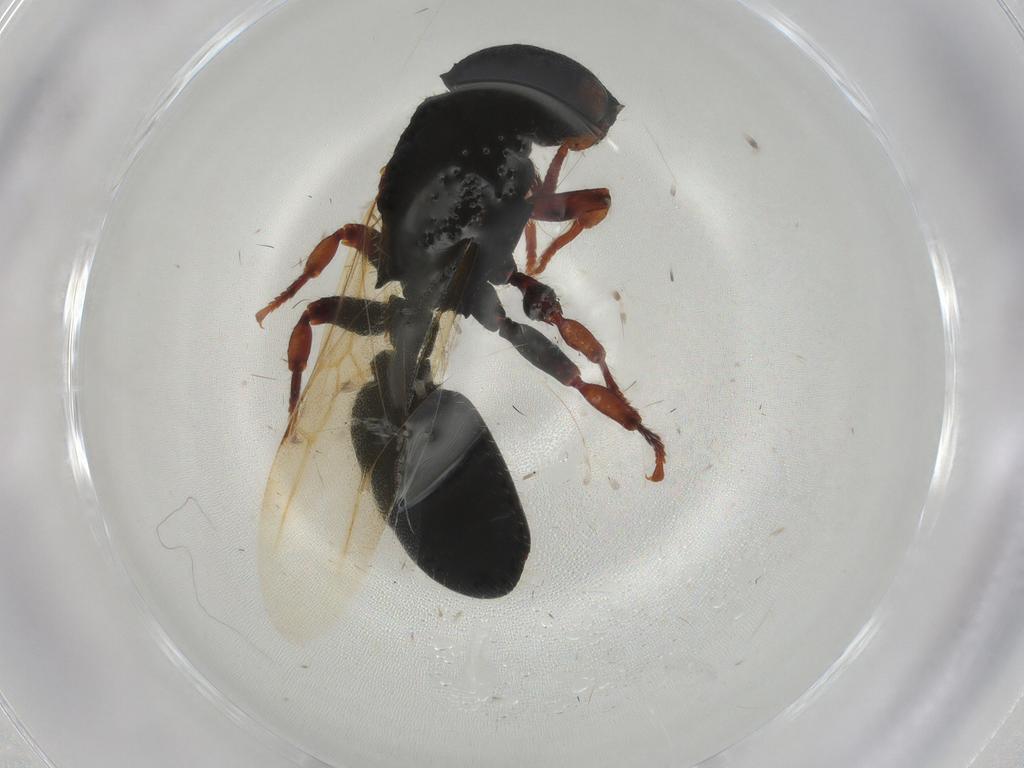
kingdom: Animalia
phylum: Arthropoda
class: Insecta
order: Hymenoptera
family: Formicidae
